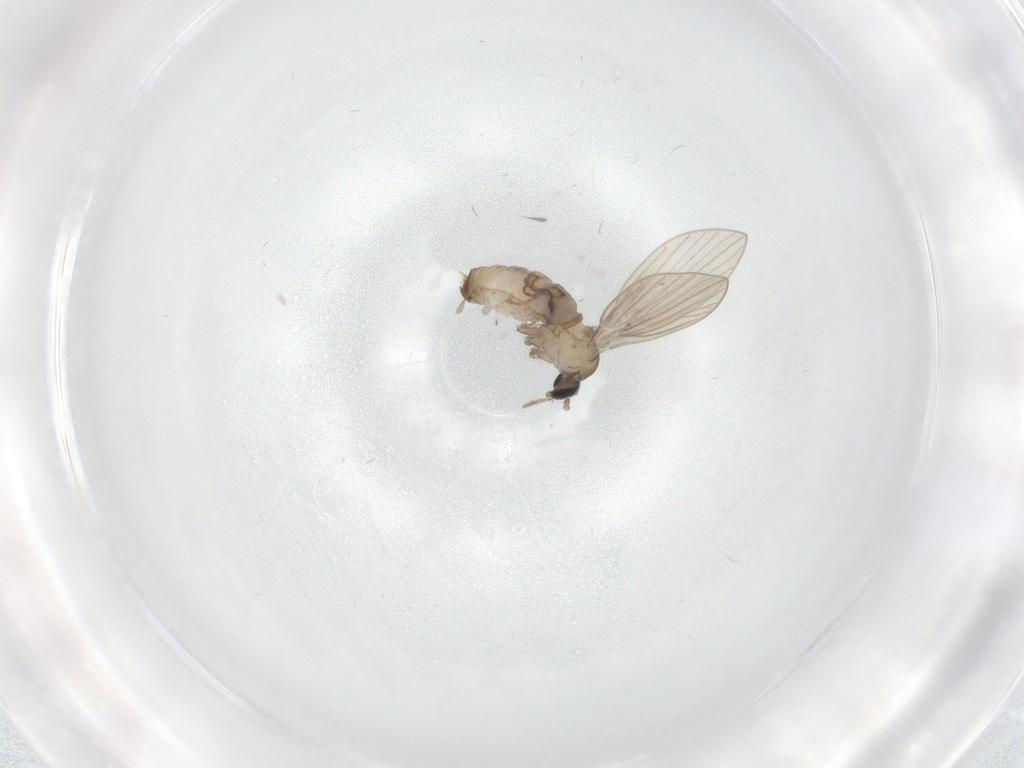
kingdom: Animalia
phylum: Arthropoda
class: Insecta
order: Diptera
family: Psychodidae
